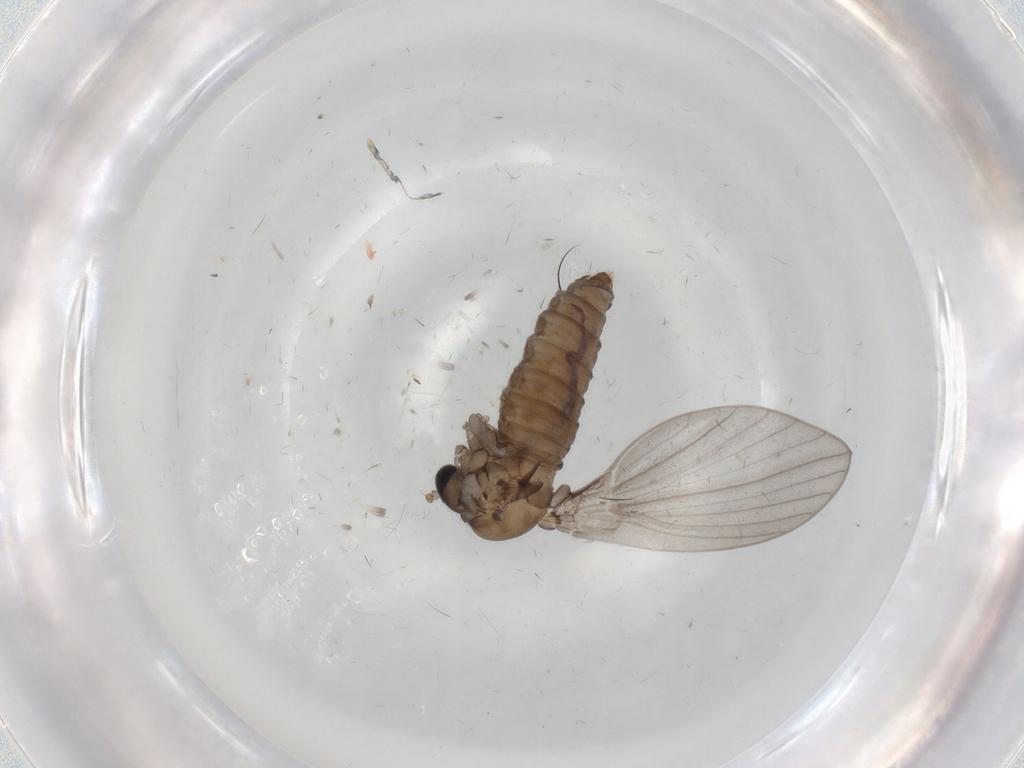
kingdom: Animalia
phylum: Arthropoda
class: Insecta
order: Diptera
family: Psychodidae
